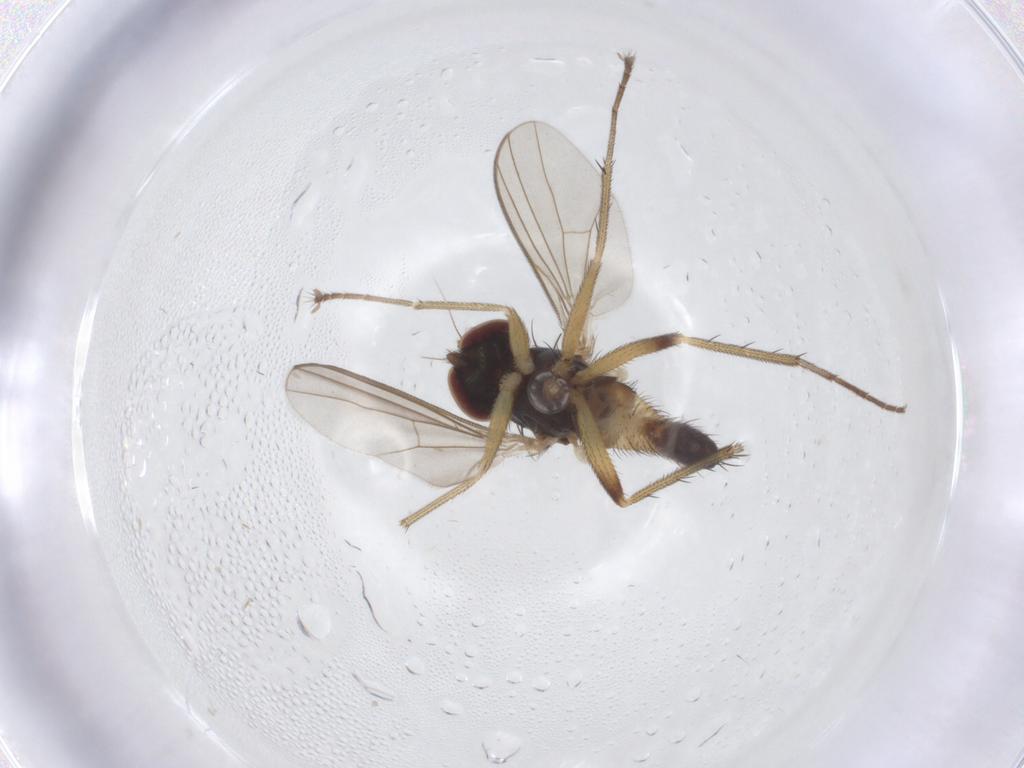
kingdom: Animalia
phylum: Arthropoda
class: Insecta
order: Diptera
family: Dolichopodidae
